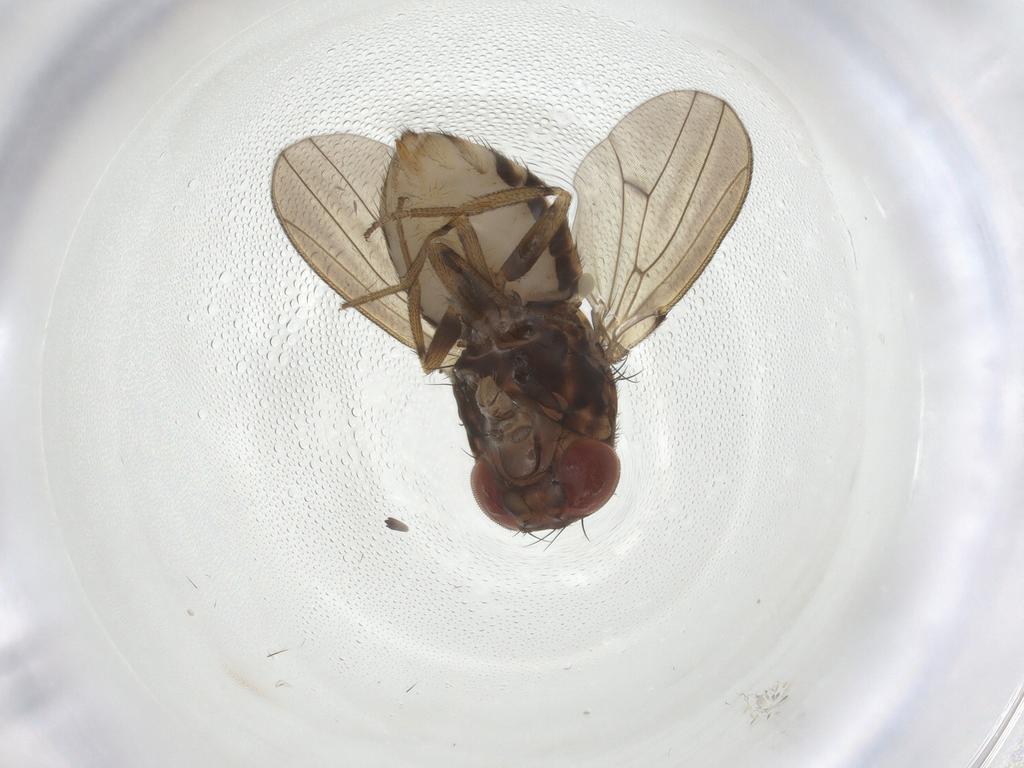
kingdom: Animalia
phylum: Arthropoda
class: Insecta
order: Diptera
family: Drosophilidae
